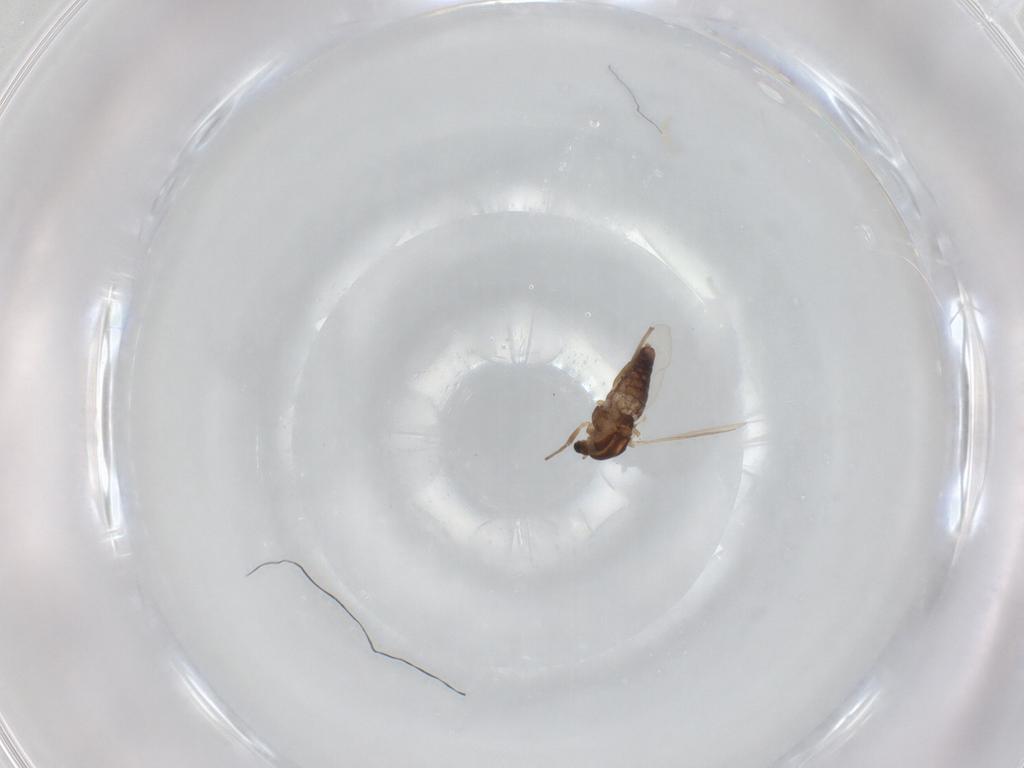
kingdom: Animalia
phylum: Arthropoda
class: Insecta
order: Diptera
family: Chironomidae
